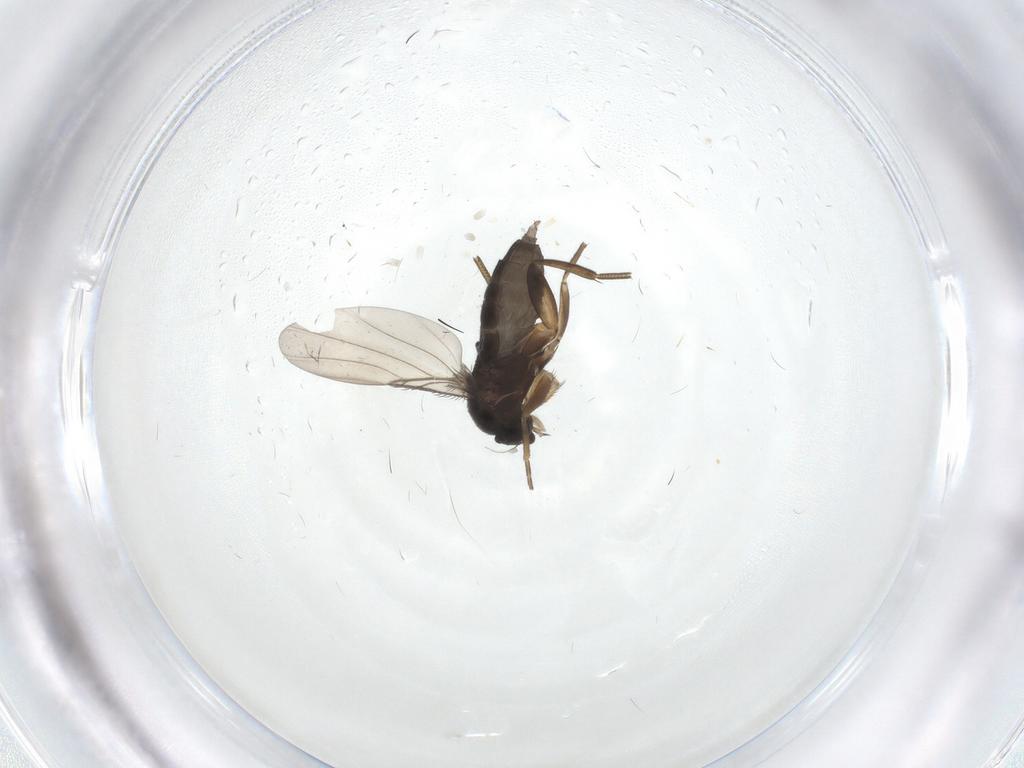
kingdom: Animalia
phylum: Arthropoda
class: Insecta
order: Diptera
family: Phoridae
